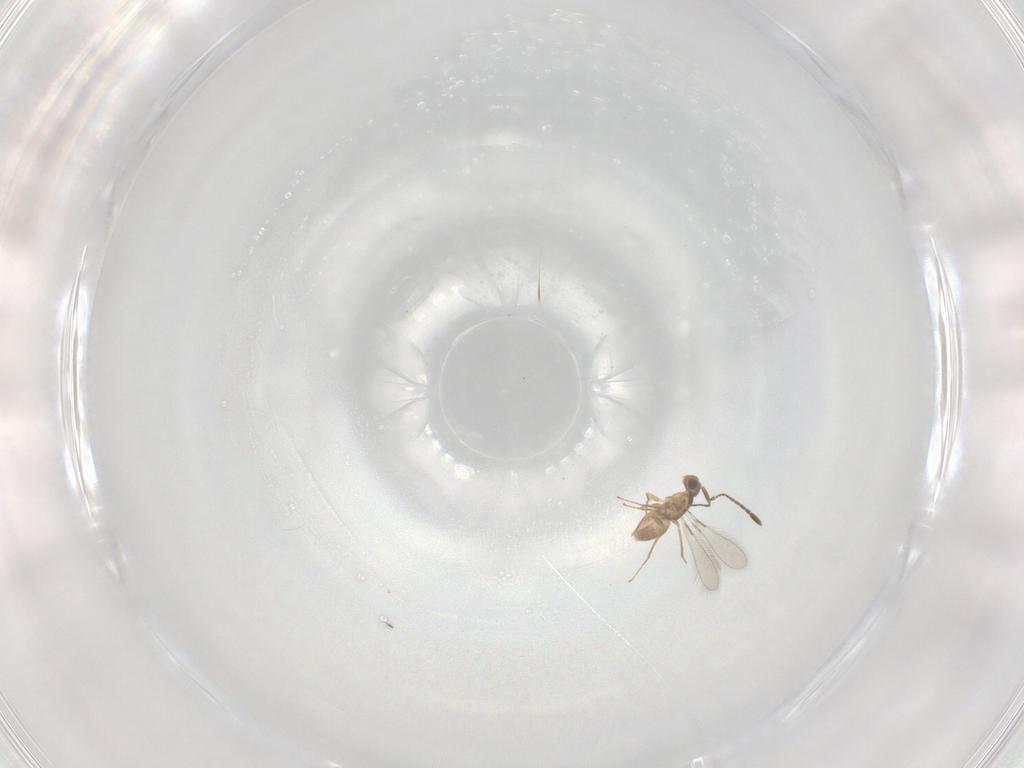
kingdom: Animalia
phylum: Arthropoda
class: Insecta
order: Hymenoptera
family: Mymaridae
